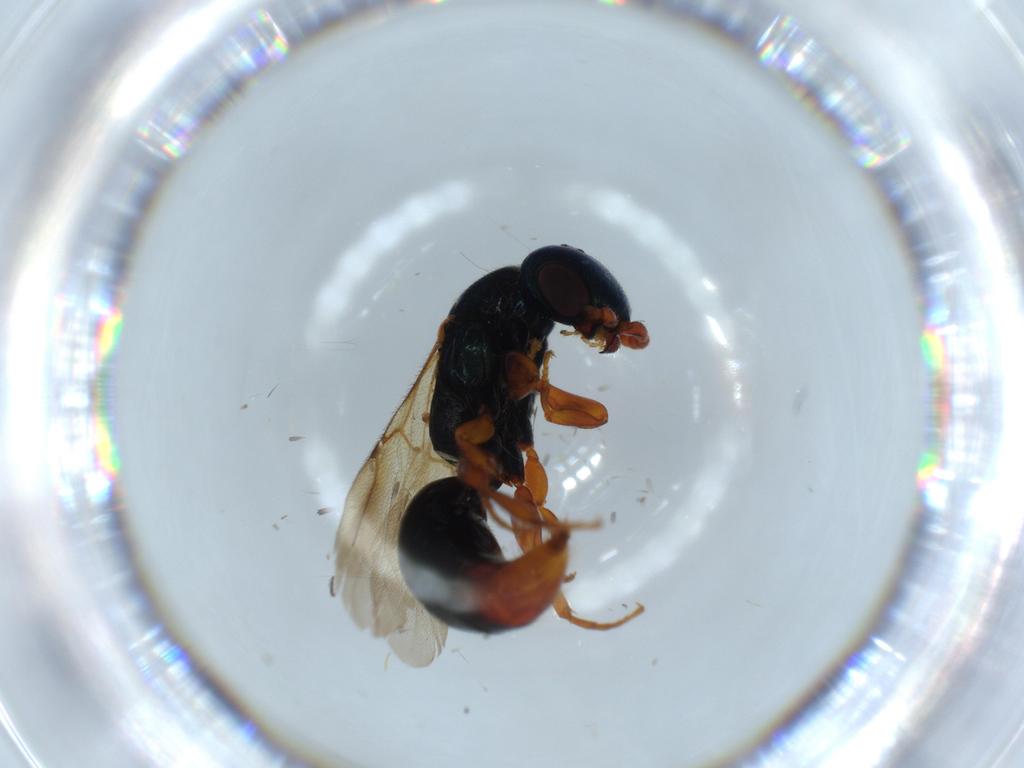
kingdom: Animalia
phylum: Arthropoda
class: Insecta
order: Hymenoptera
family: Bethylidae
